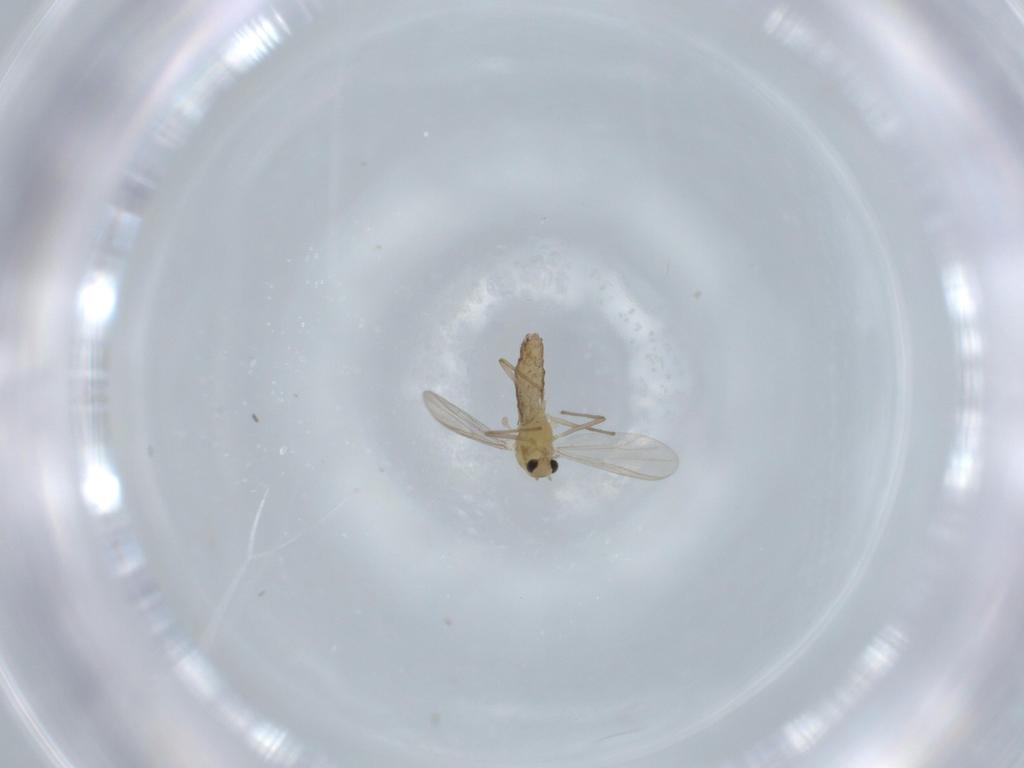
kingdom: Animalia
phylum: Arthropoda
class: Insecta
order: Diptera
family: Chironomidae
